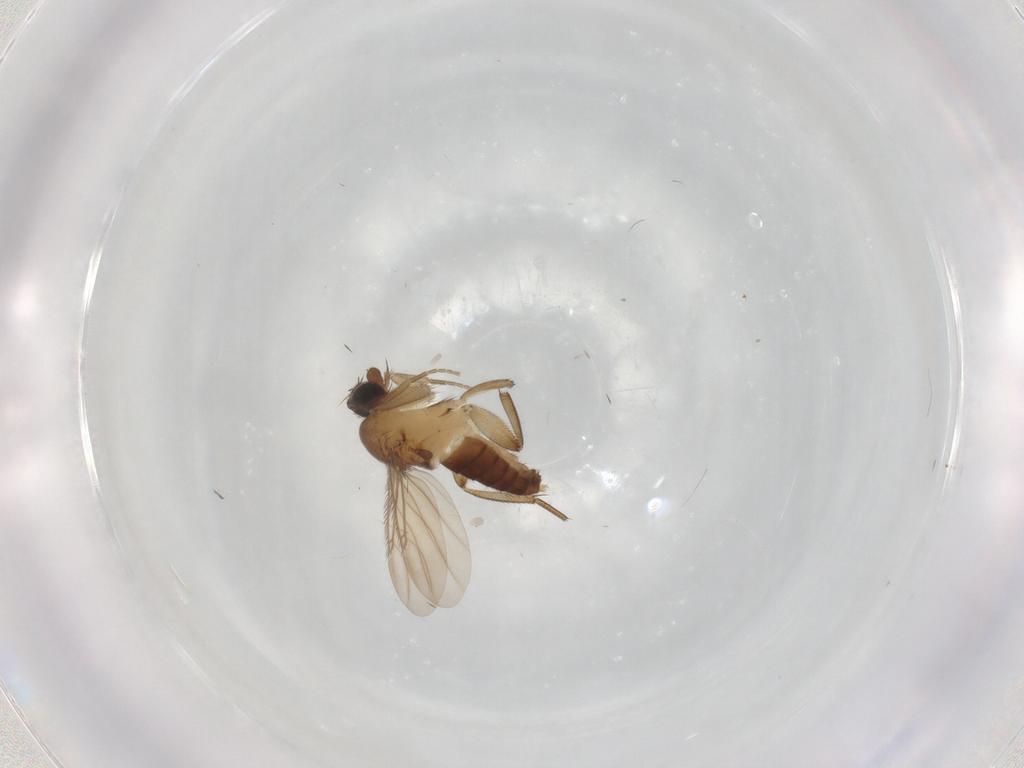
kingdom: Animalia
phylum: Arthropoda
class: Insecta
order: Diptera
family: Phoridae
